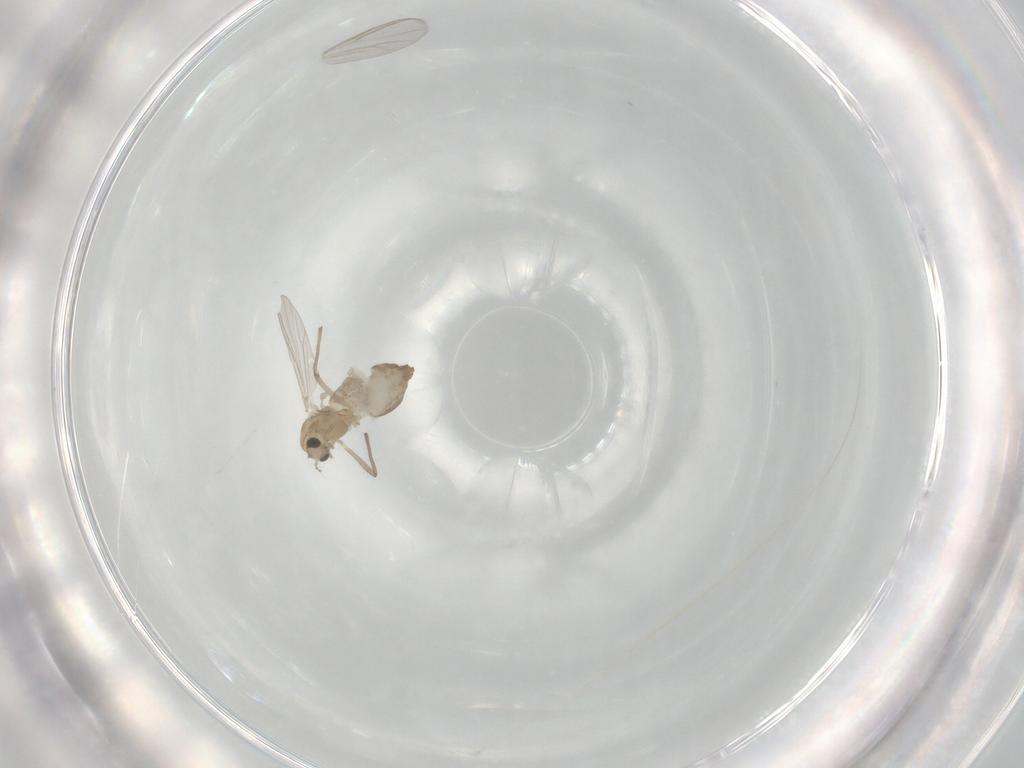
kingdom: Animalia
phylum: Arthropoda
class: Insecta
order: Diptera
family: Chironomidae
